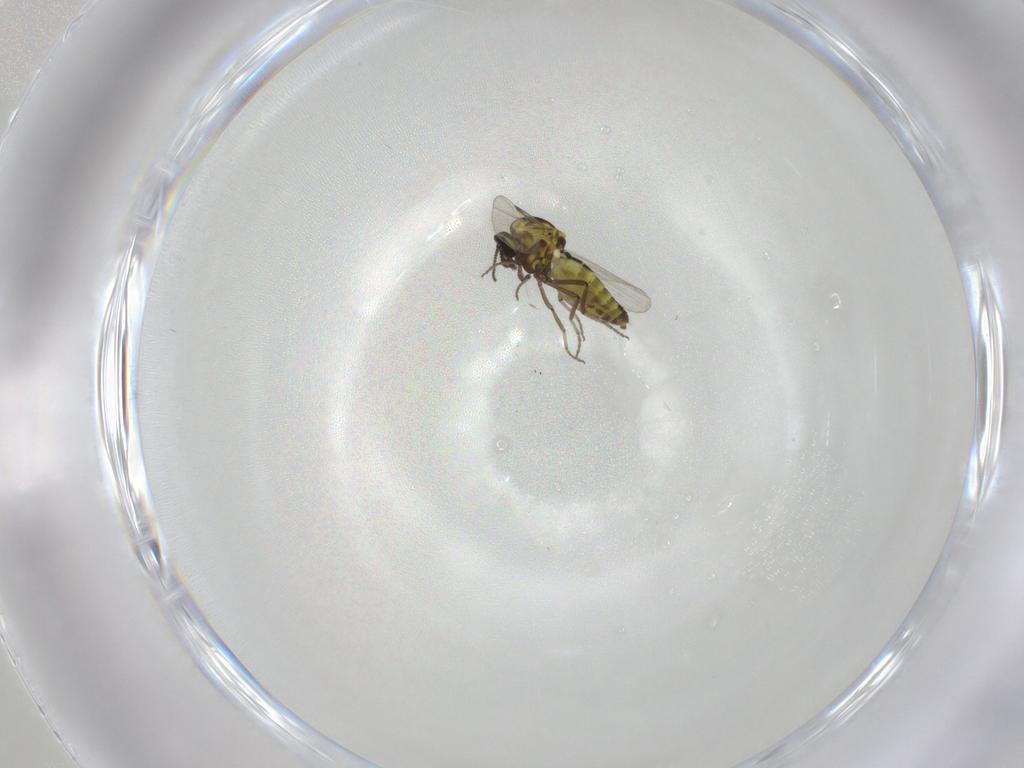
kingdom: Animalia
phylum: Arthropoda
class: Insecta
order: Diptera
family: Ceratopogonidae
